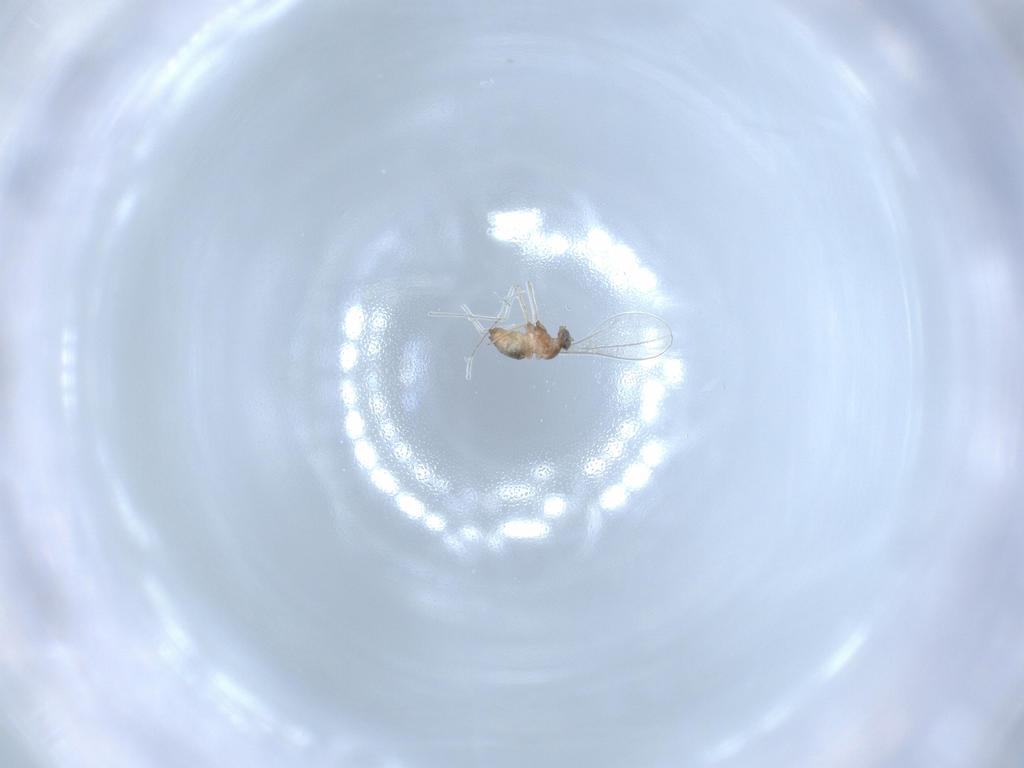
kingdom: Animalia
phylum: Arthropoda
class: Insecta
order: Diptera
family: Cecidomyiidae
